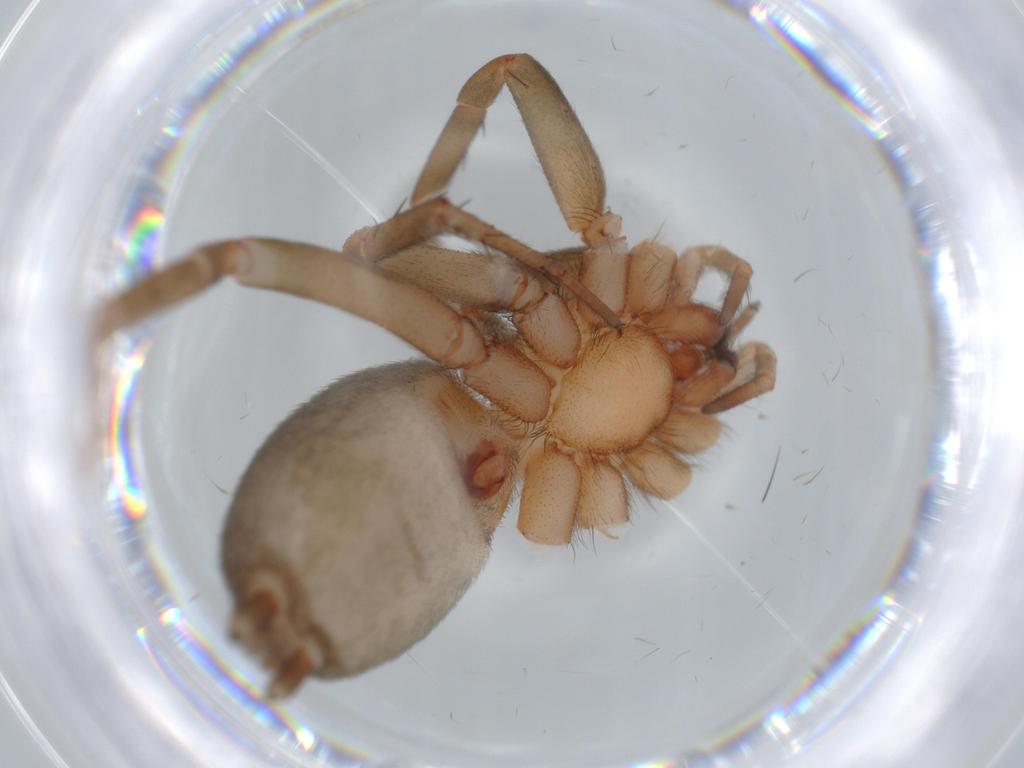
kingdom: Animalia
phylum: Arthropoda
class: Arachnida
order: Araneae
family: Gnaphosidae
